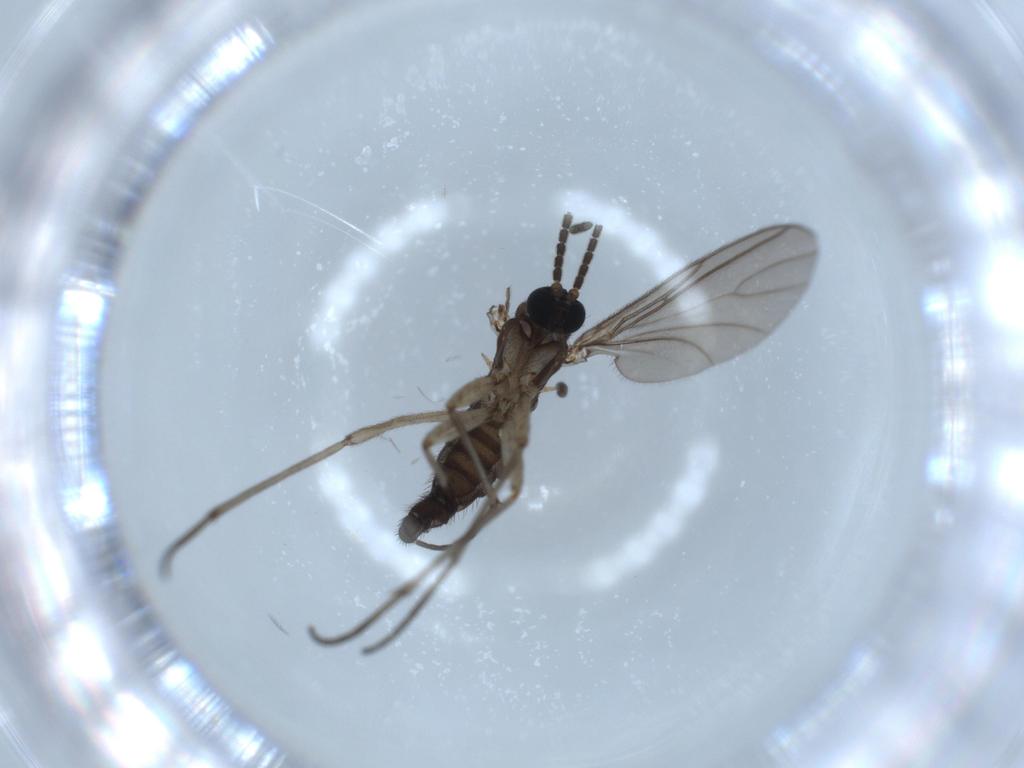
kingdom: Animalia
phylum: Arthropoda
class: Insecta
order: Diptera
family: Sciaridae
